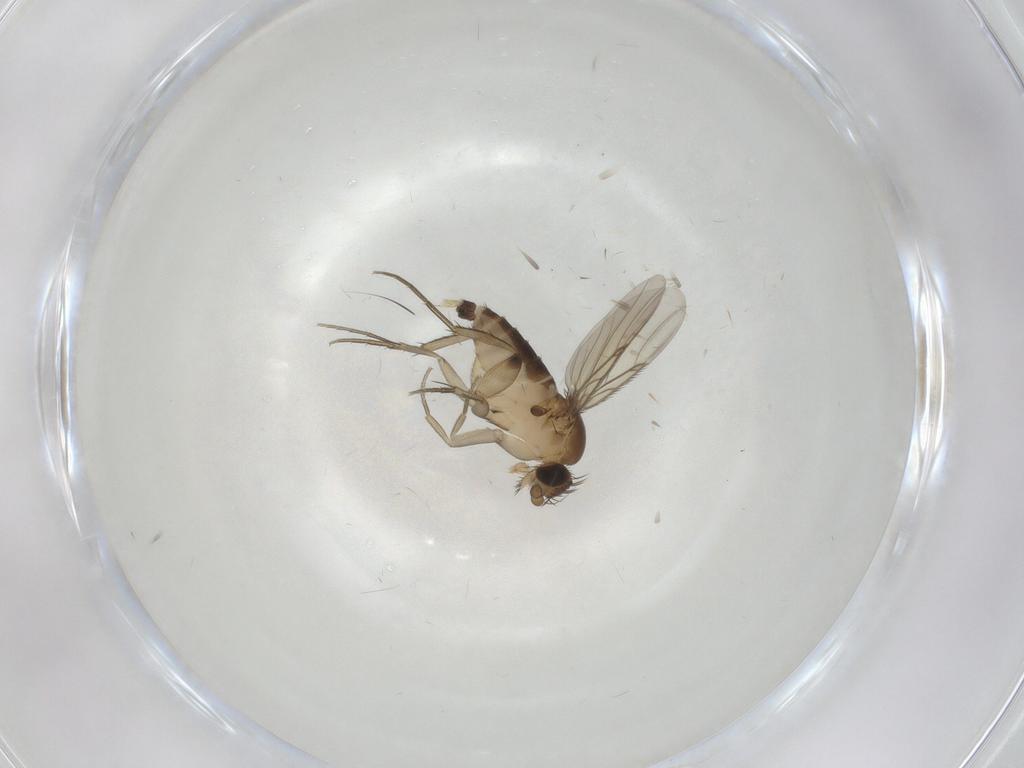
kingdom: Animalia
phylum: Arthropoda
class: Insecta
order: Diptera
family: Phoridae
